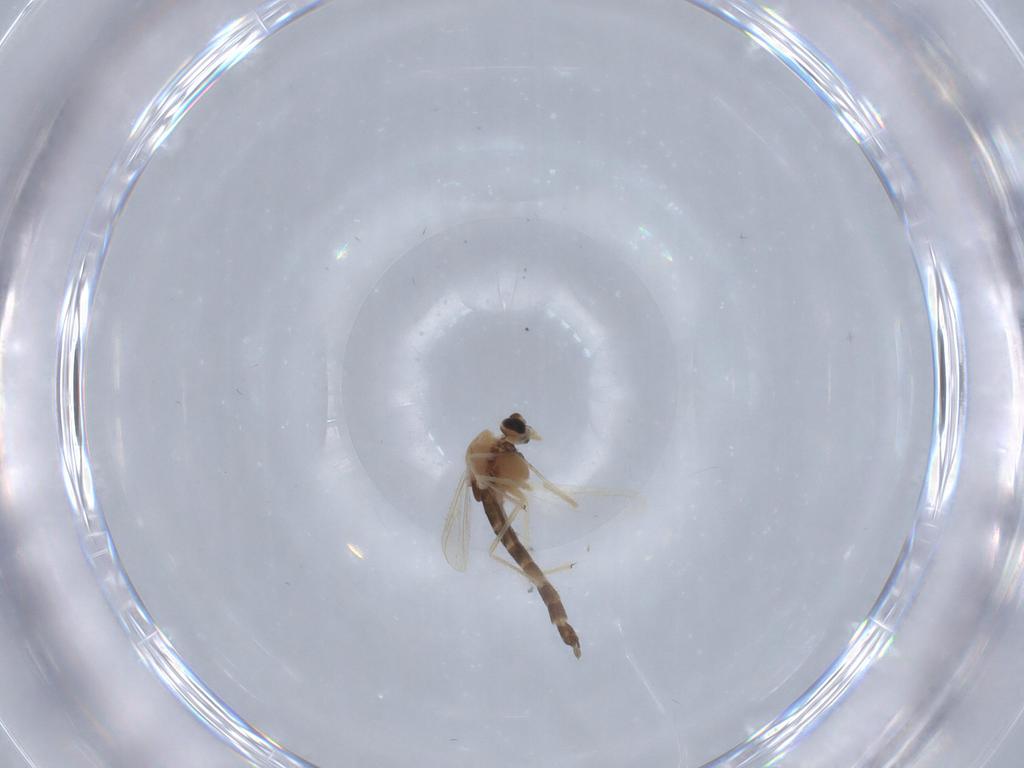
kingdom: Animalia
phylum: Arthropoda
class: Insecta
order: Diptera
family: Chironomidae
